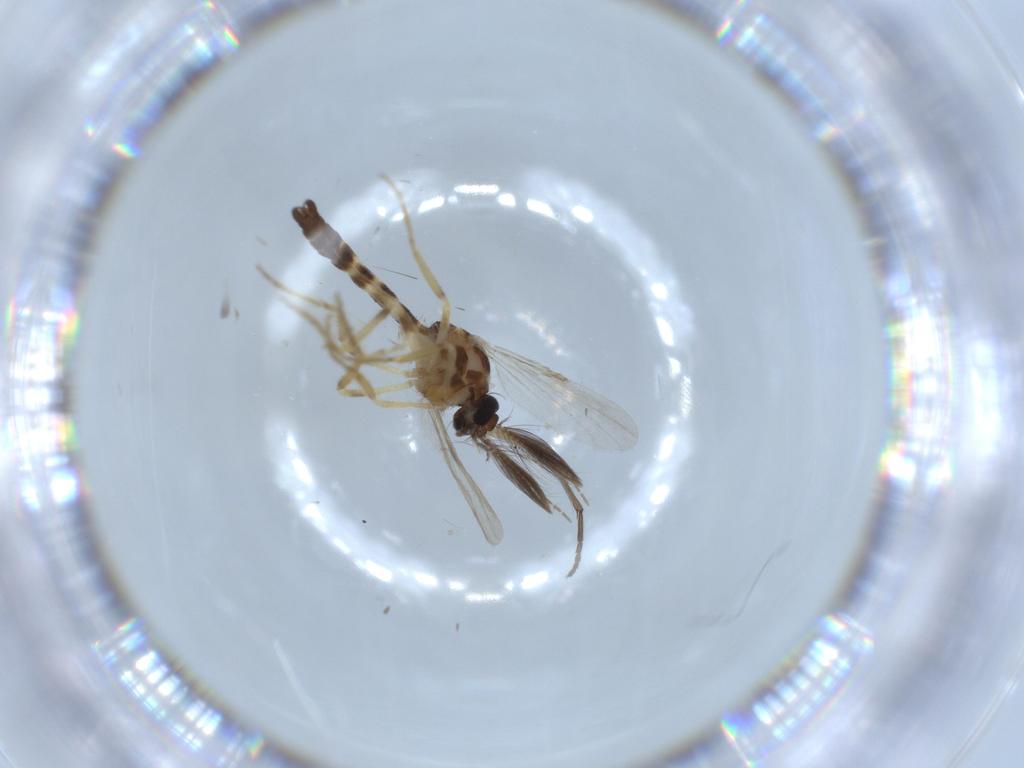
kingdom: Animalia
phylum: Arthropoda
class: Insecta
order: Diptera
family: Ceratopogonidae
